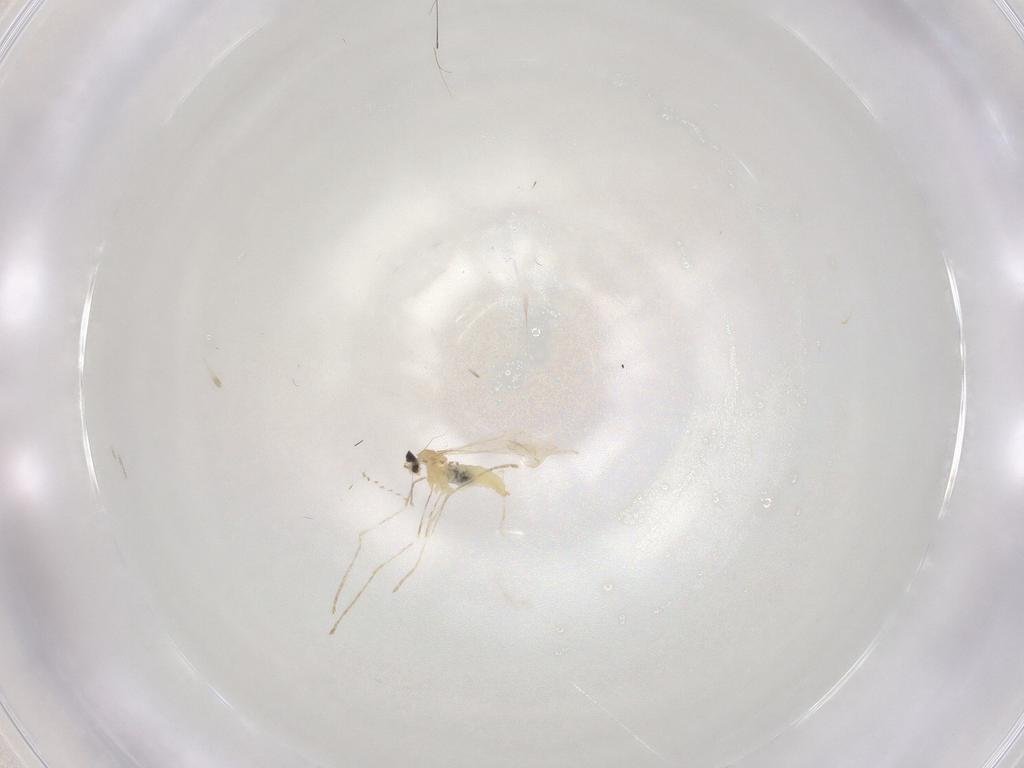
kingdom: Animalia
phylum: Arthropoda
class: Insecta
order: Diptera
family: Cecidomyiidae
